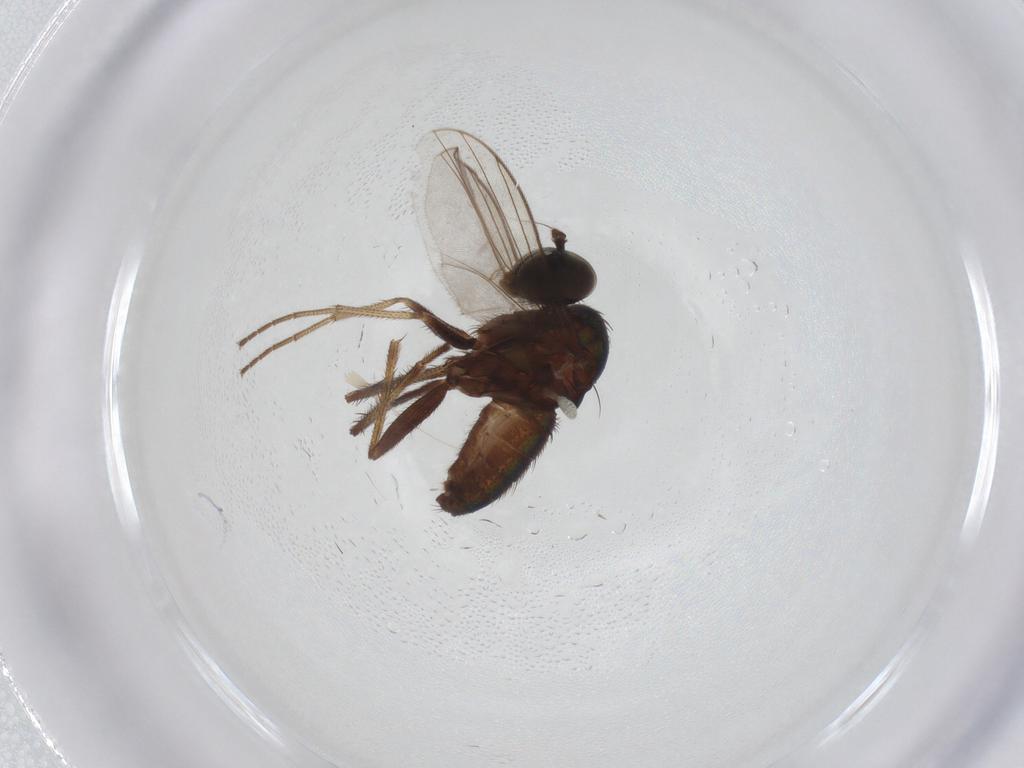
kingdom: Animalia
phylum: Arthropoda
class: Insecta
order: Diptera
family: Dolichopodidae
